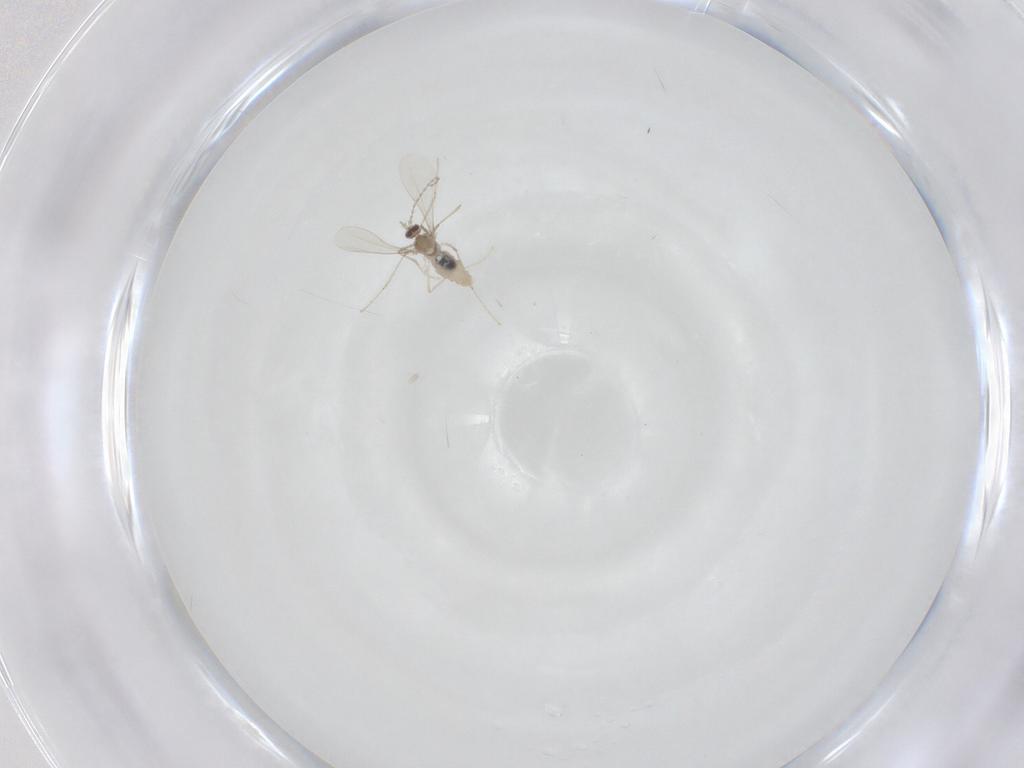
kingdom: Animalia
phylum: Arthropoda
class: Insecta
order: Diptera
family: Cecidomyiidae
